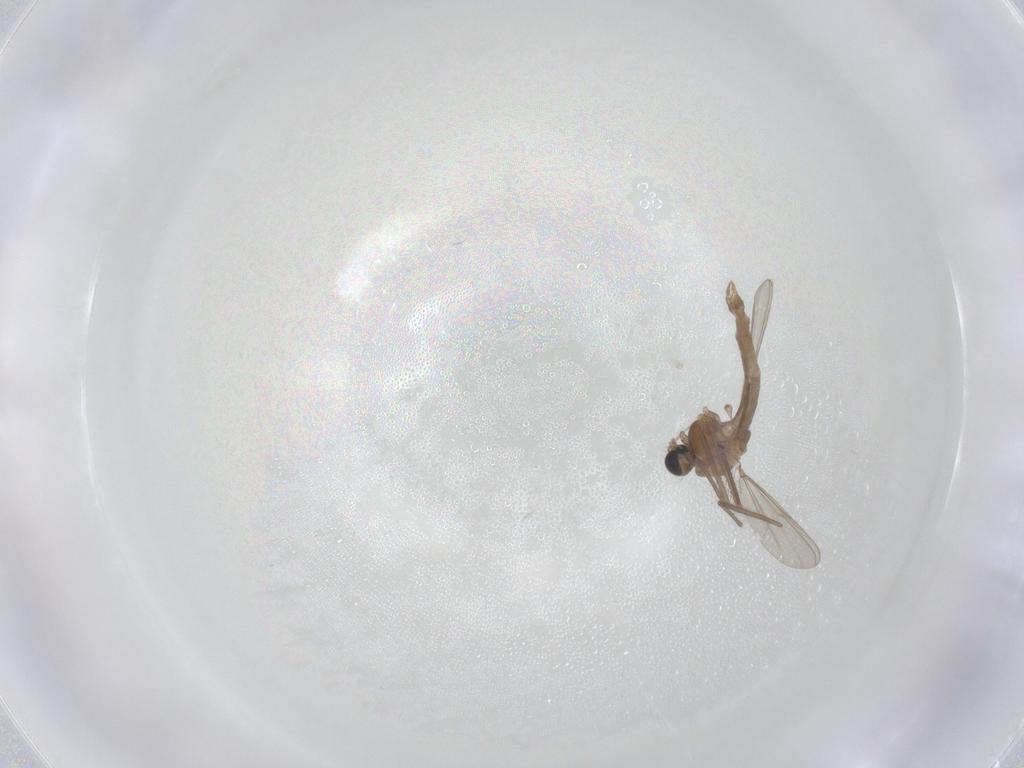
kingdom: Animalia
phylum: Arthropoda
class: Insecta
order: Diptera
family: Chironomidae
